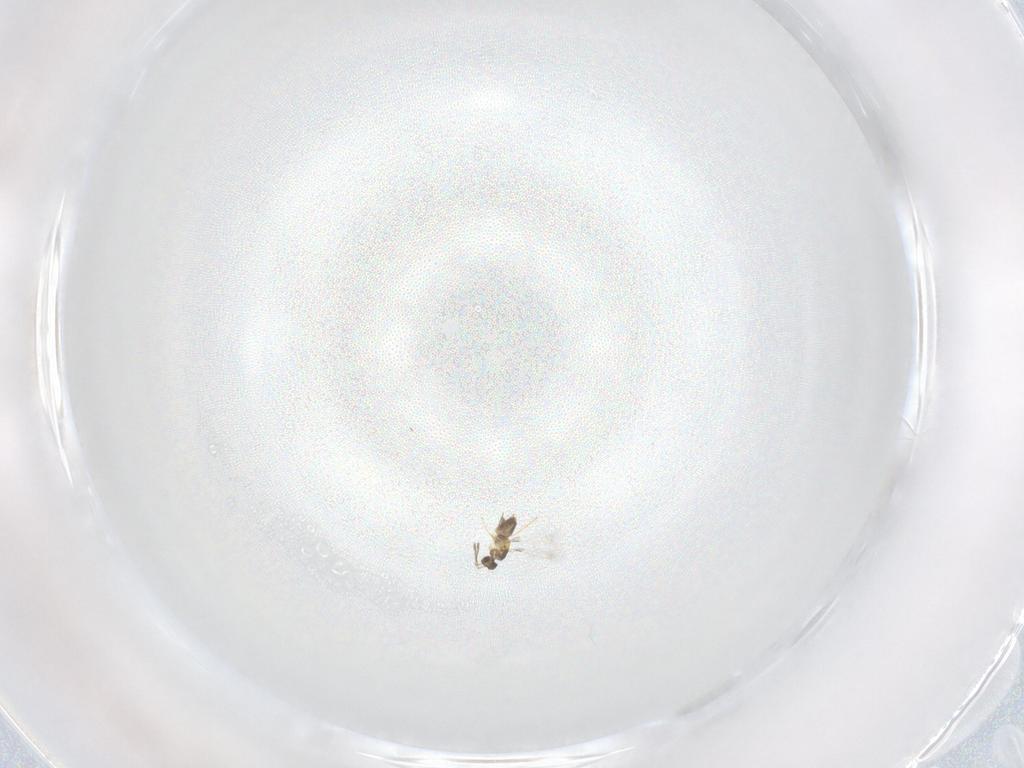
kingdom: Animalia
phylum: Arthropoda
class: Insecta
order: Hymenoptera
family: Mymaridae
